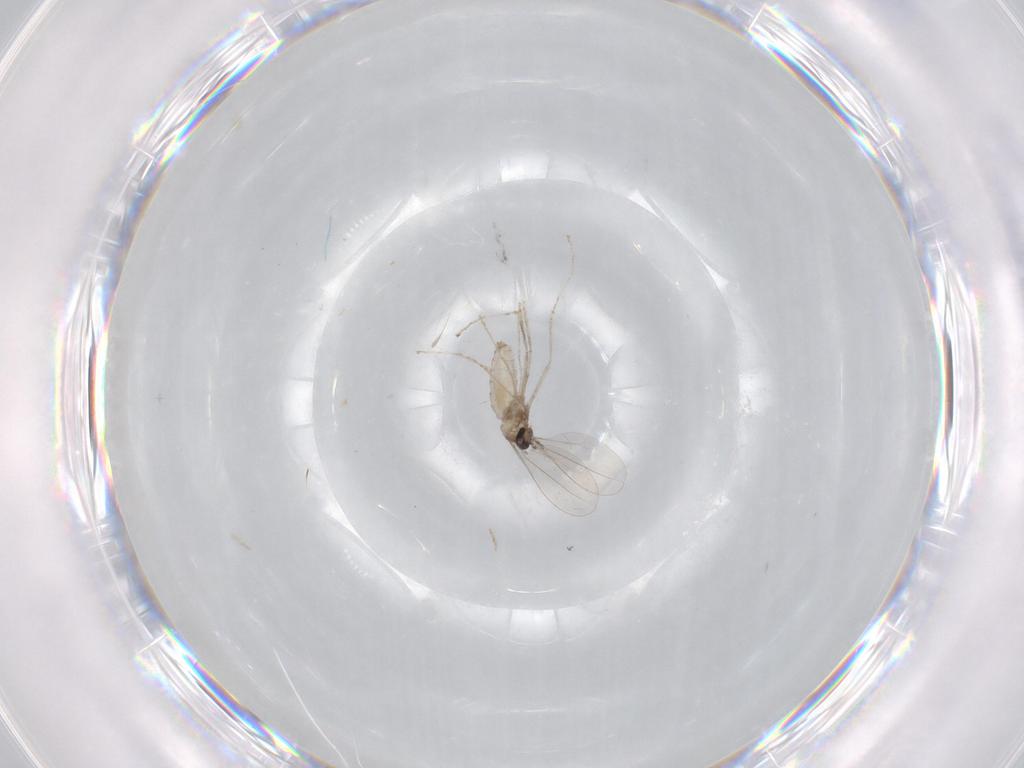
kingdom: Animalia
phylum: Arthropoda
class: Insecta
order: Diptera
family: Cecidomyiidae
